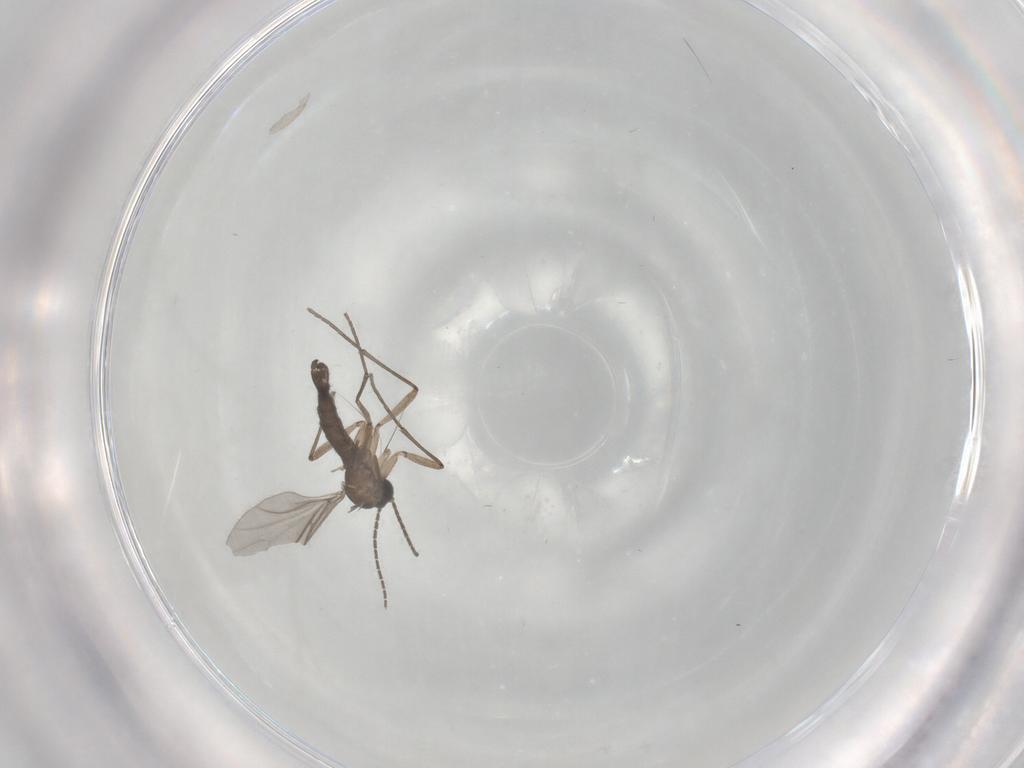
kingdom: Animalia
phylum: Arthropoda
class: Insecta
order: Diptera
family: Sciaridae
